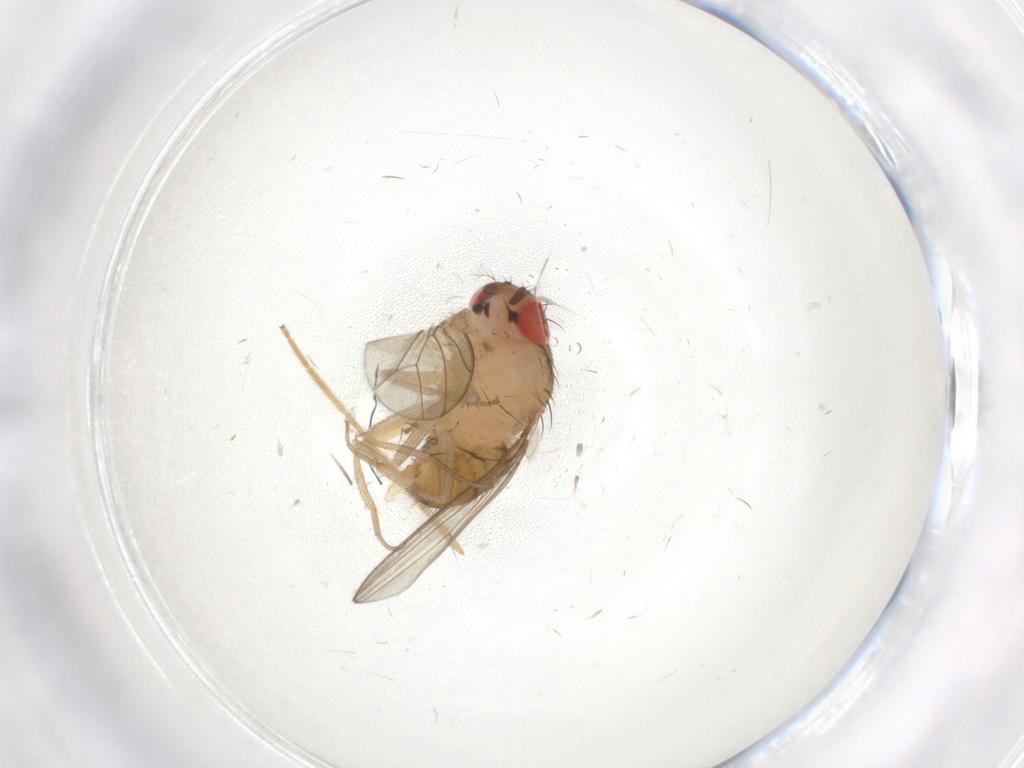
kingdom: Animalia
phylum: Arthropoda
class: Insecta
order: Diptera
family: Drosophilidae
